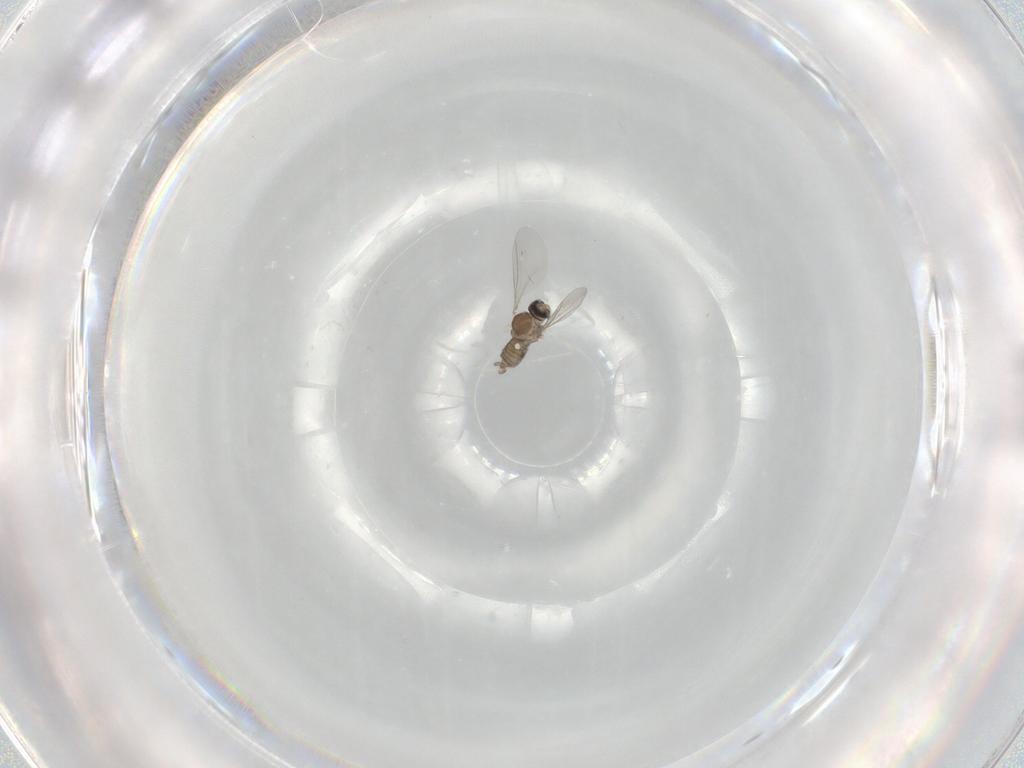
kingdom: Animalia
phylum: Arthropoda
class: Insecta
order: Diptera
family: Cecidomyiidae
